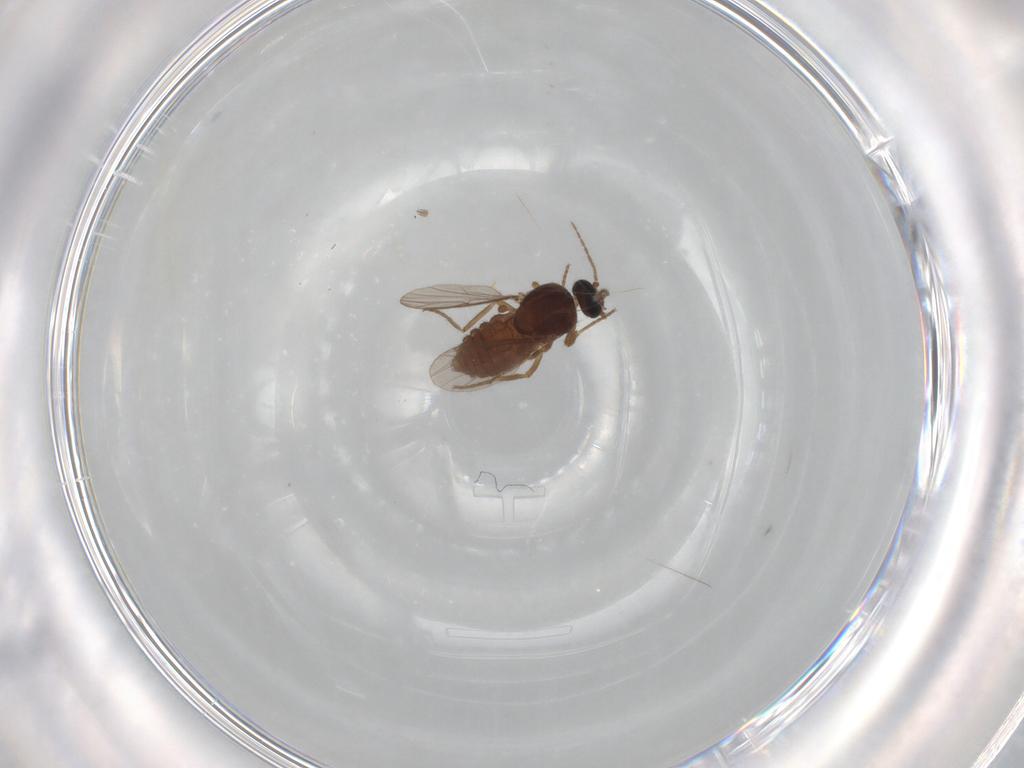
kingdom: Animalia
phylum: Arthropoda
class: Insecta
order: Diptera
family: Ceratopogonidae
